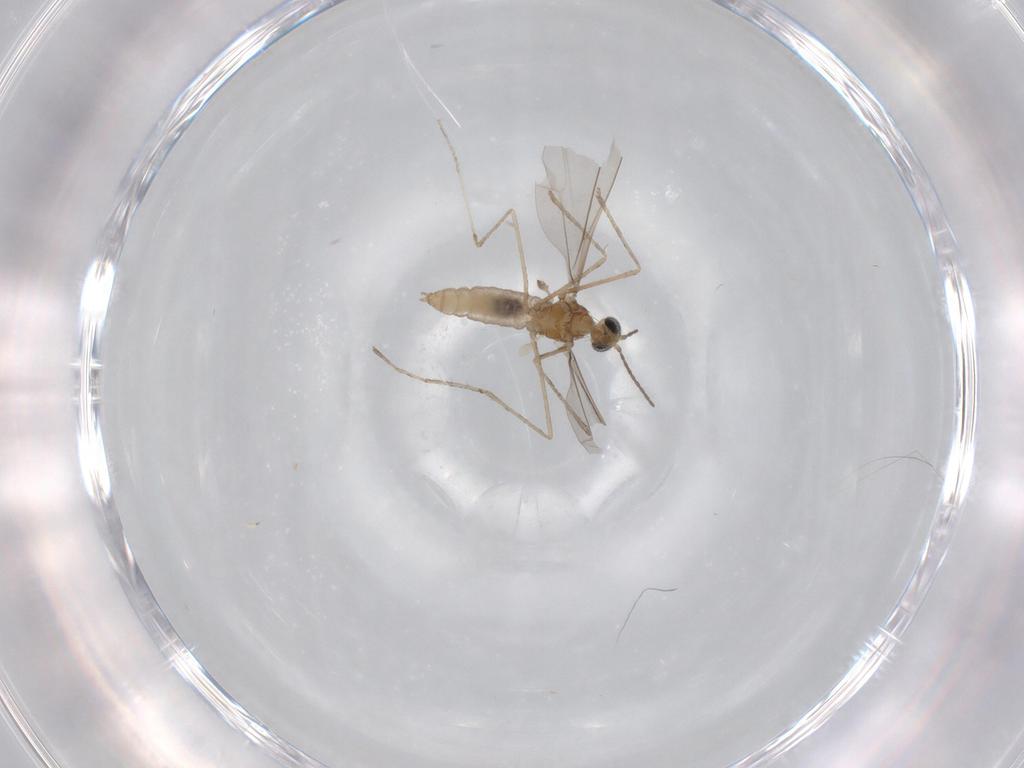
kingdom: Animalia
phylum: Arthropoda
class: Insecta
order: Diptera
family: Cecidomyiidae
